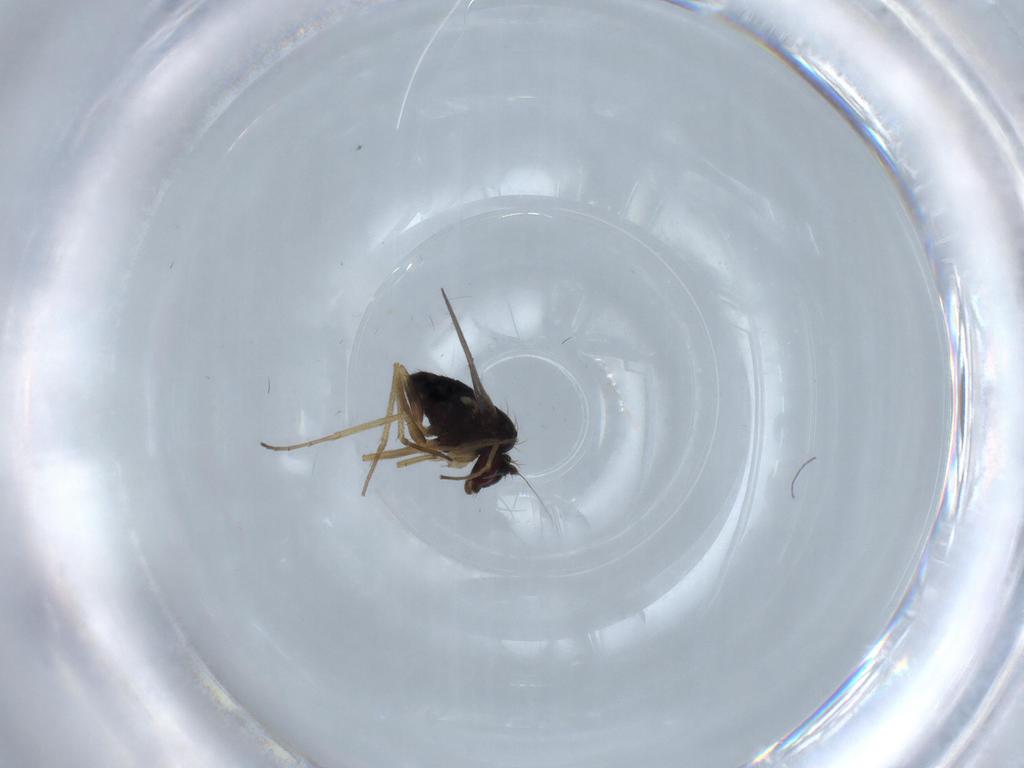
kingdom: Animalia
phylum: Arthropoda
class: Insecta
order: Diptera
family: Dolichopodidae
